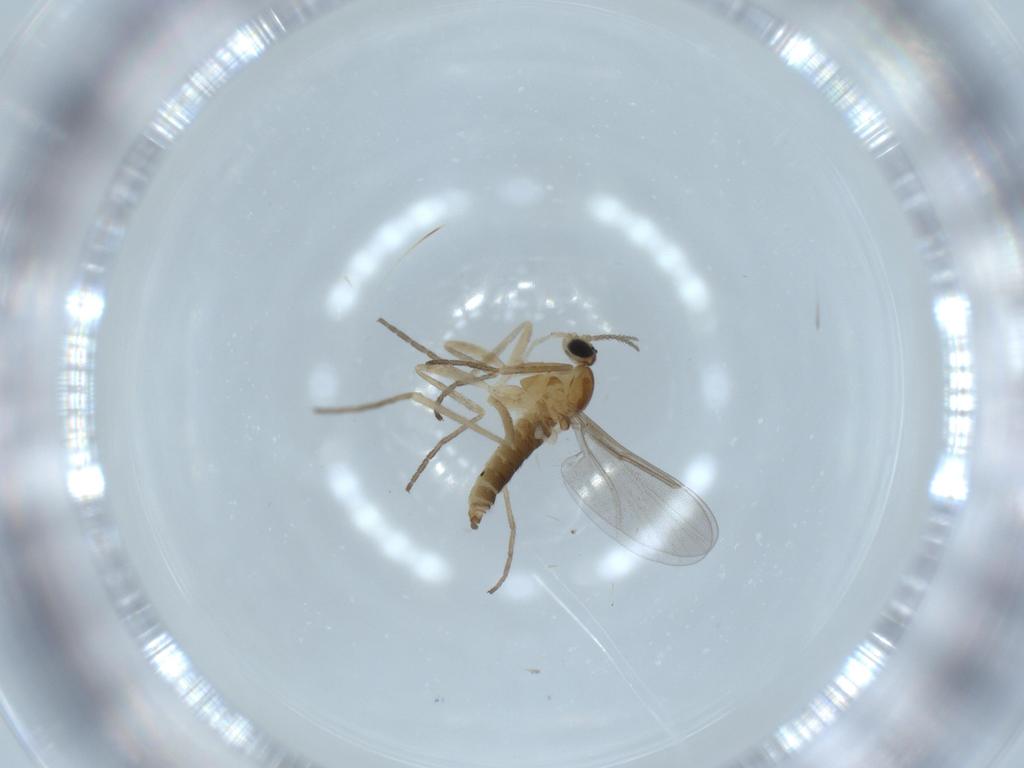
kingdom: Animalia
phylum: Arthropoda
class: Insecta
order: Diptera
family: Cecidomyiidae
